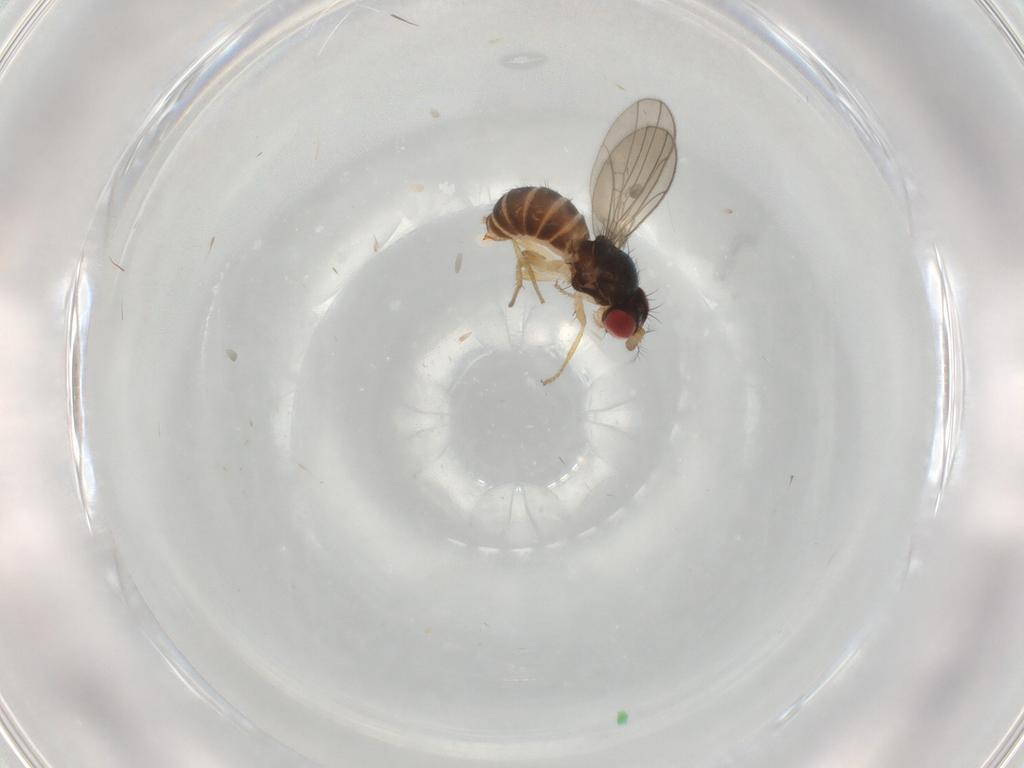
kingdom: Animalia
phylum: Arthropoda
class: Insecta
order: Diptera
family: Drosophilidae
